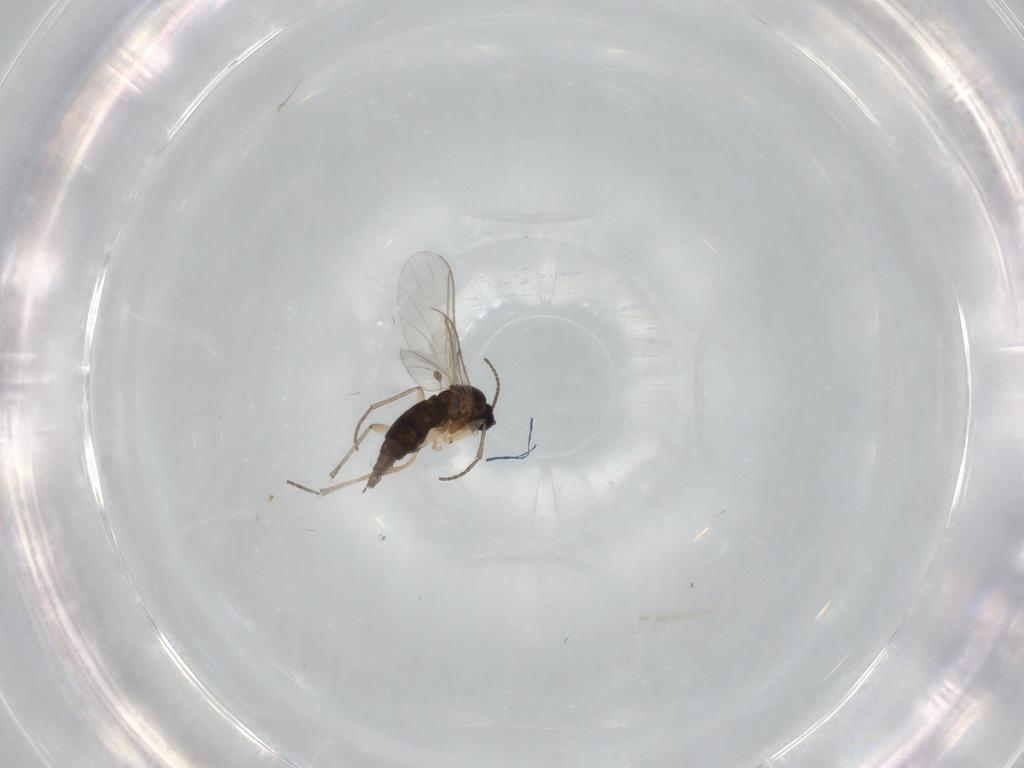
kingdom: Animalia
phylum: Arthropoda
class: Insecta
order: Diptera
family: Sciaridae
